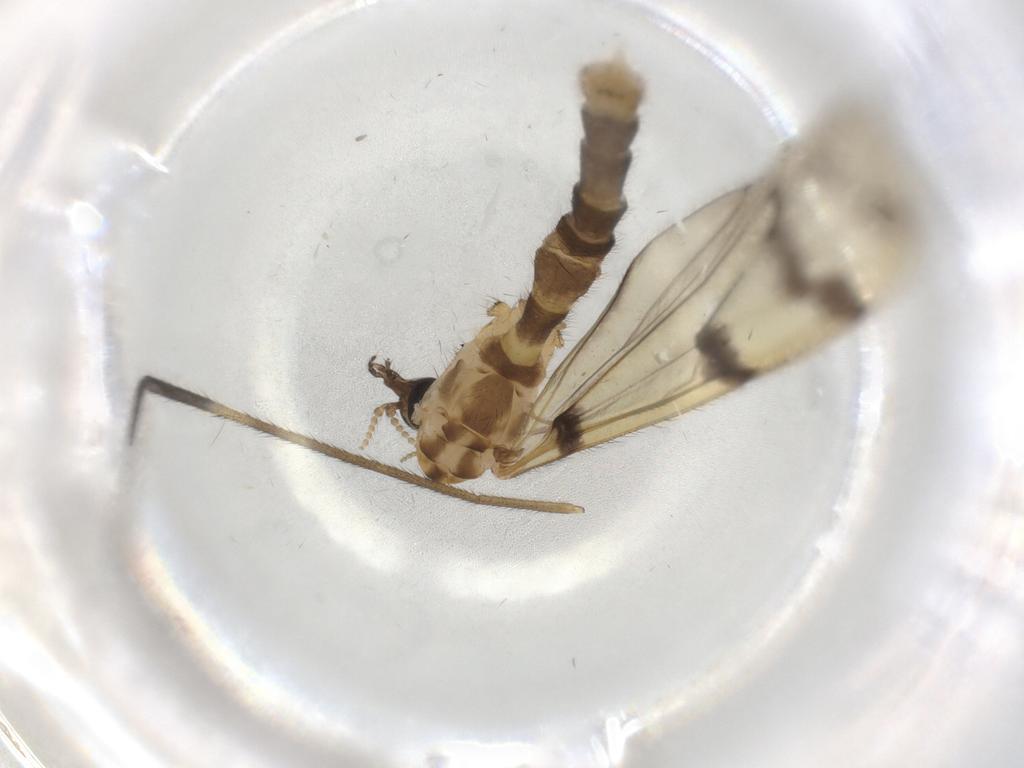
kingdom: Animalia
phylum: Arthropoda
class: Insecta
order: Diptera
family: Tipulidae
